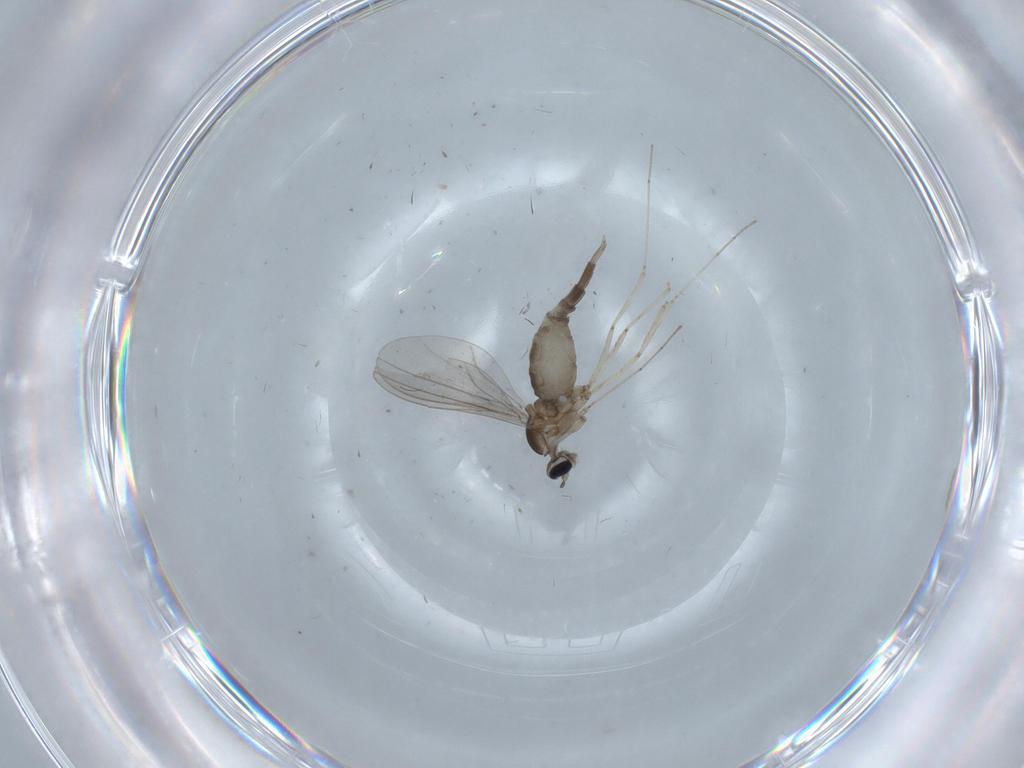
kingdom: Animalia
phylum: Arthropoda
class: Insecta
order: Diptera
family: Cecidomyiidae
